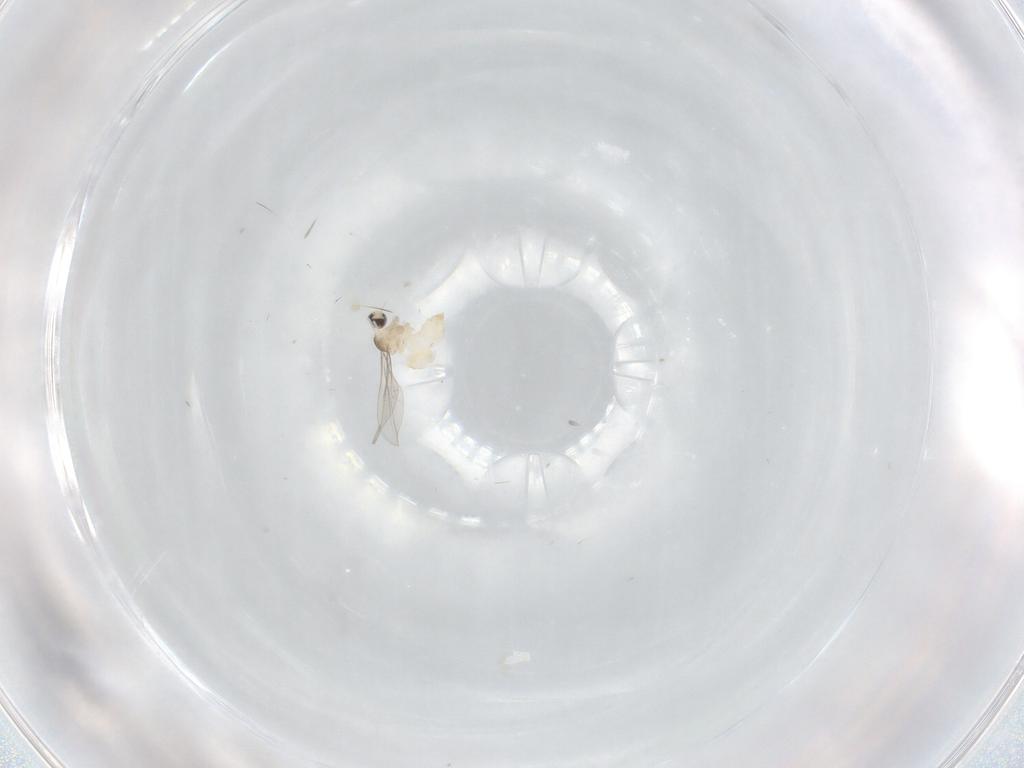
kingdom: Animalia
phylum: Arthropoda
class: Insecta
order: Diptera
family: Cecidomyiidae
